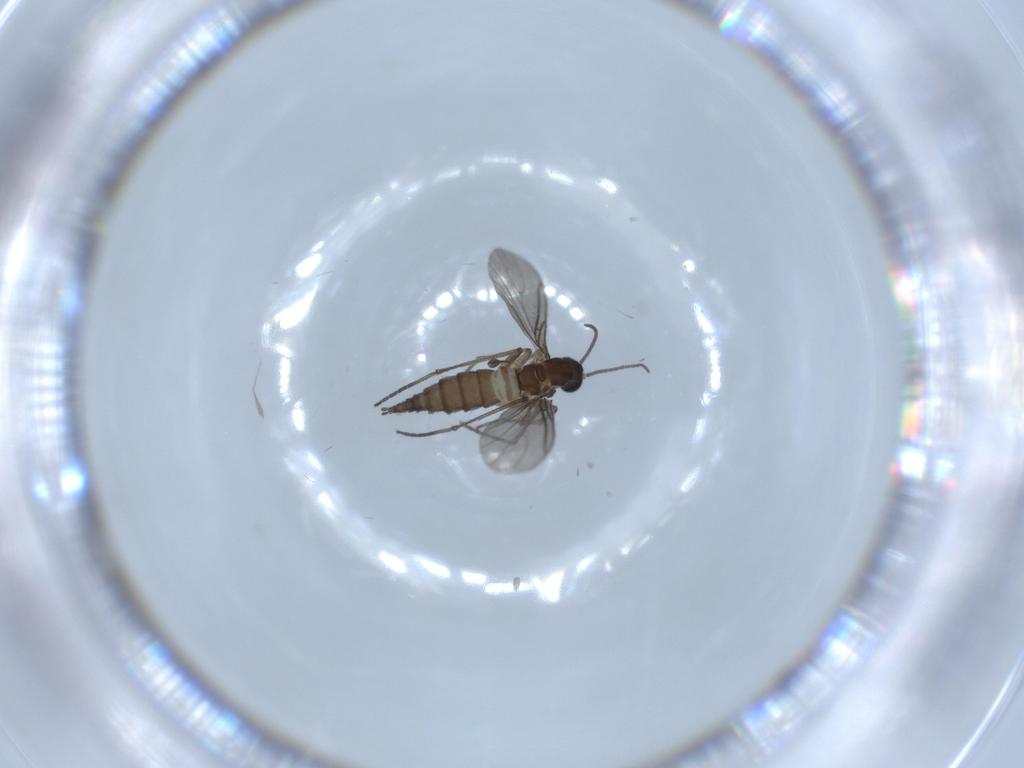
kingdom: Animalia
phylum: Arthropoda
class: Insecta
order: Diptera
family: Sciaridae
